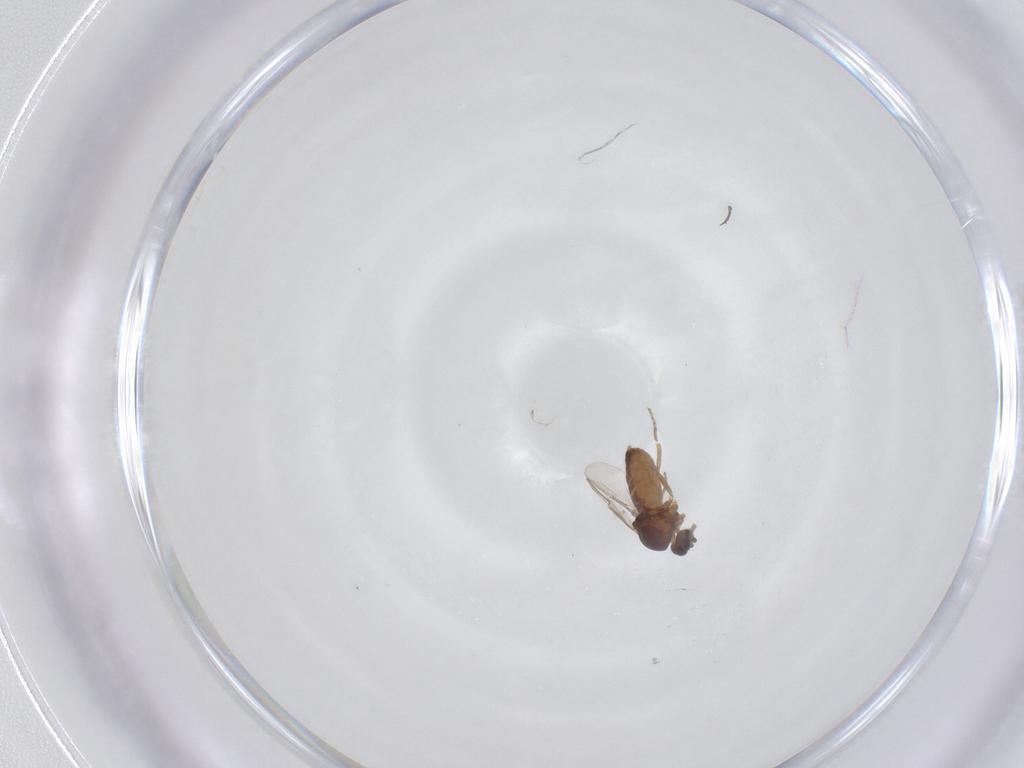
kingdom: Animalia
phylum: Arthropoda
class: Insecta
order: Diptera
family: Ceratopogonidae
